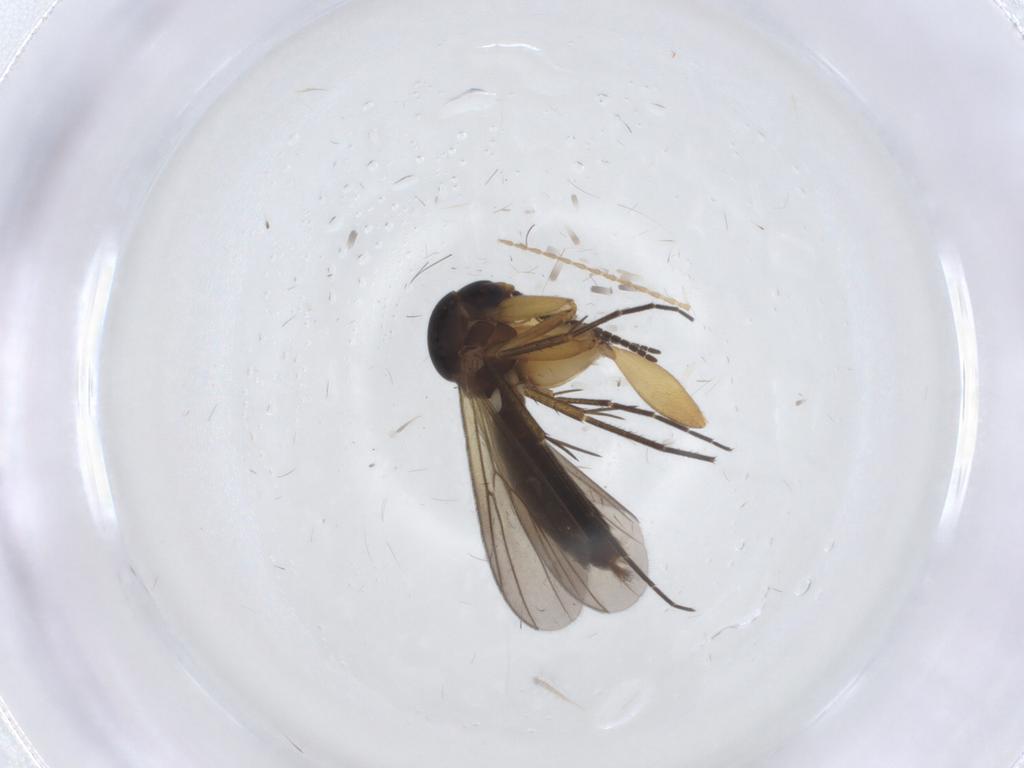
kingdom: Animalia
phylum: Arthropoda
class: Insecta
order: Diptera
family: Mycetophilidae
